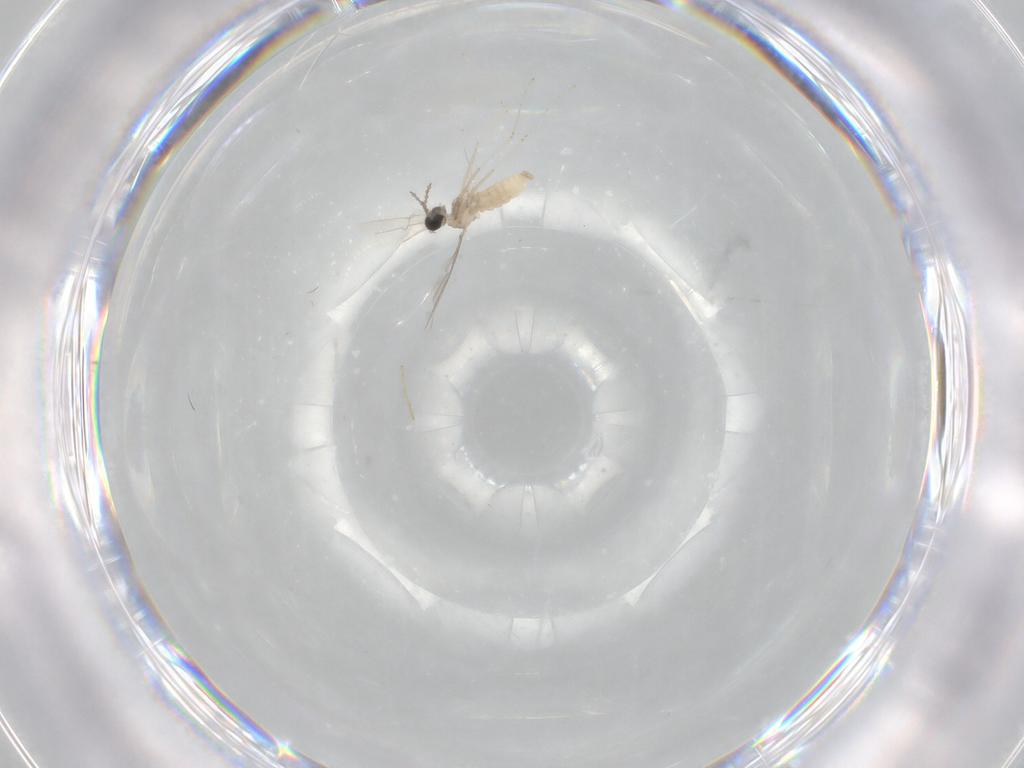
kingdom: Animalia
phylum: Arthropoda
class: Insecta
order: Diptera
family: Cecidomyiidae
